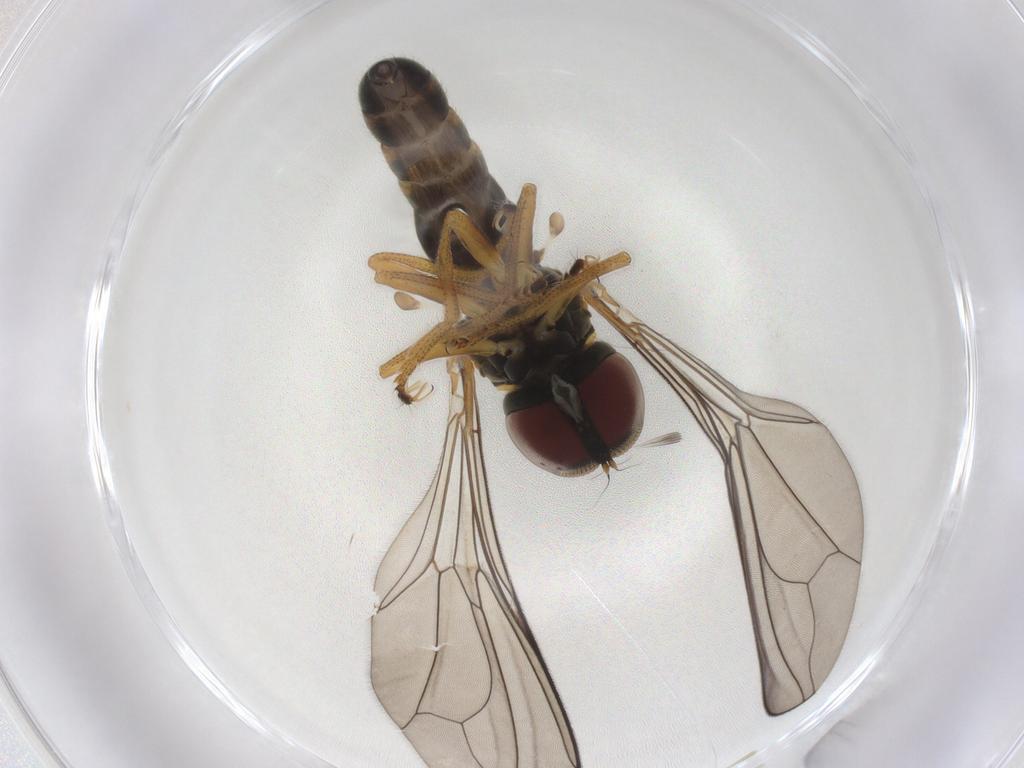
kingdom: Animalia
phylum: Arthropoda
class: Insecta
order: Diptera
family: Pipunculidae
